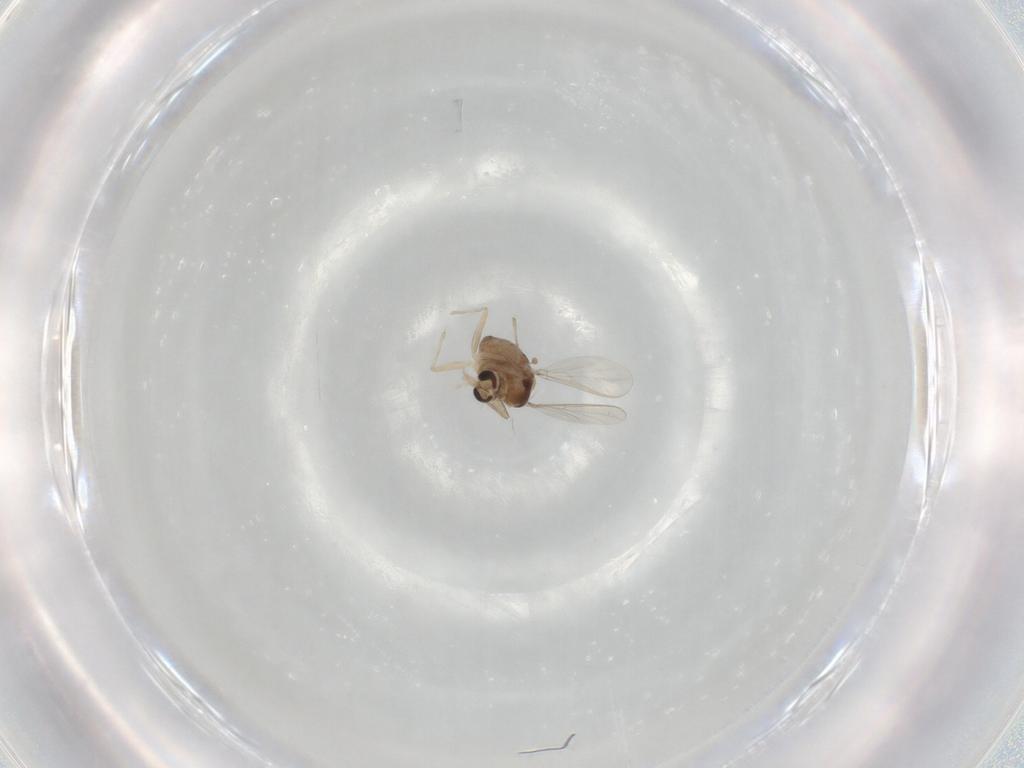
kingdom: Animalia
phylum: Arthropoda
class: Insecta
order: Diptera
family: Chironomidae
